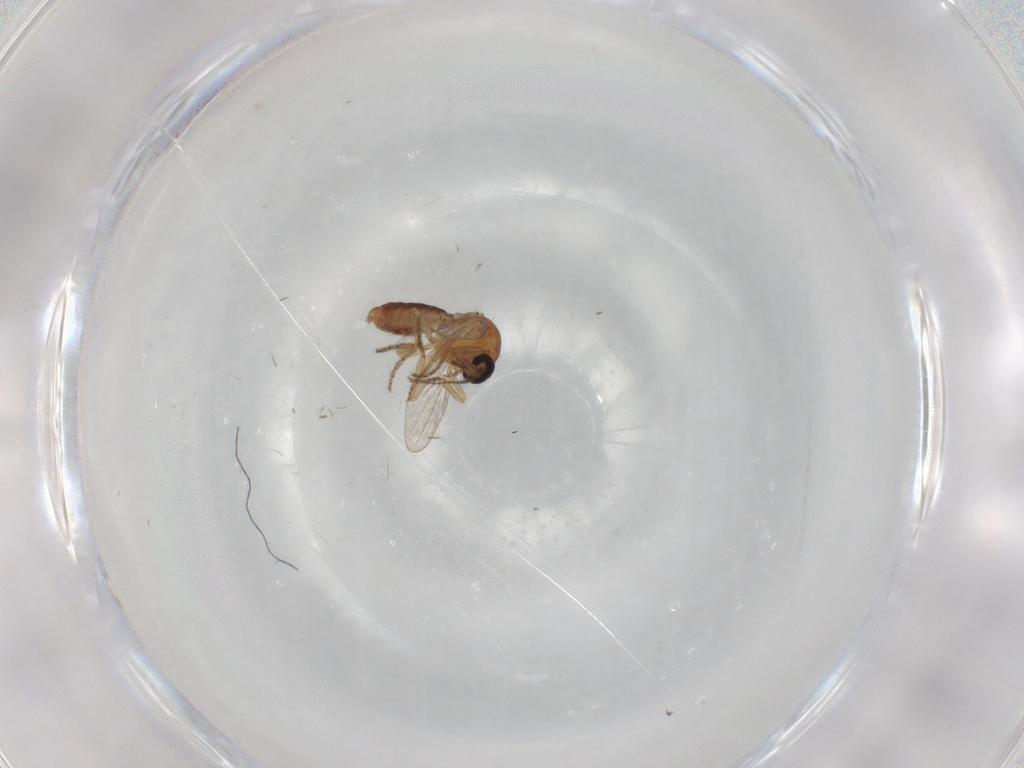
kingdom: Animalia
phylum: Arthropoda
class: Insecta
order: Diptera
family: Ceratopogonidae
